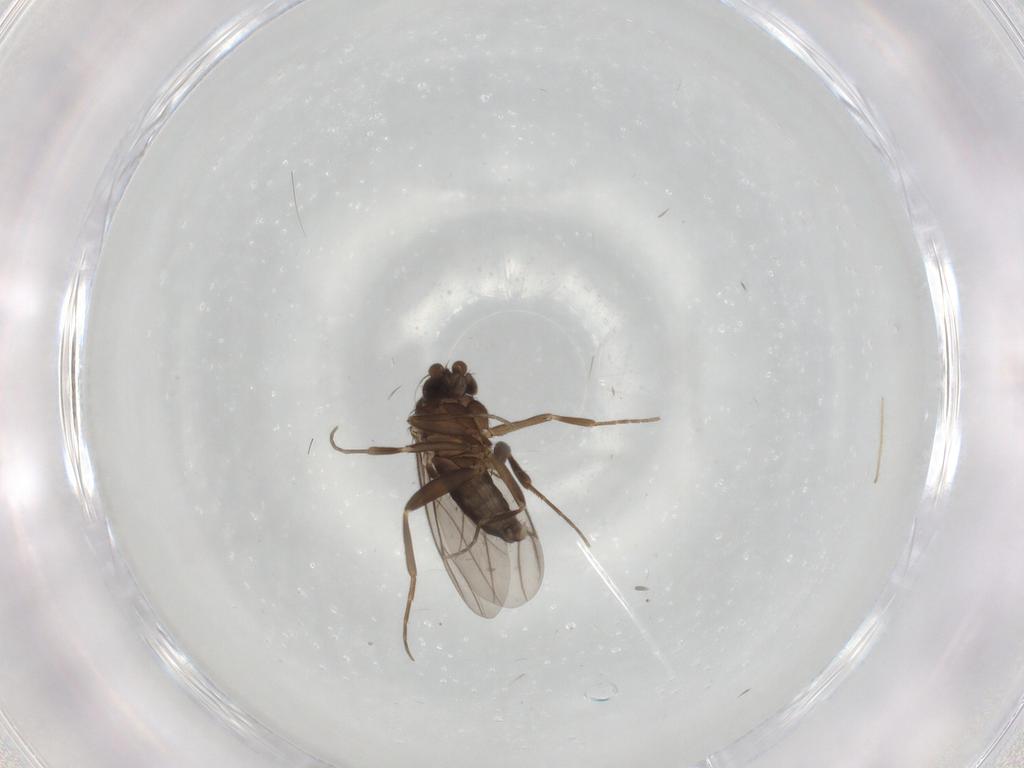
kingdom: Animalia
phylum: Arthropoda
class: Insecta
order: Diptera
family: Chironomidae
